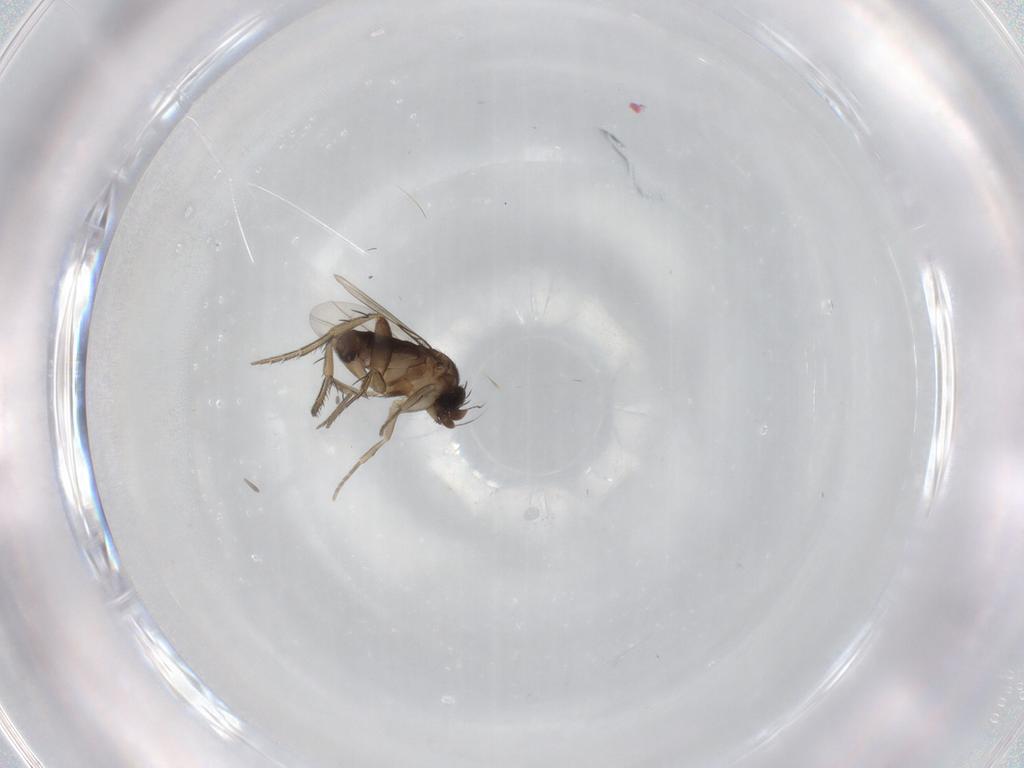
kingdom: Animalia
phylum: Arthropoda
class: Insecta
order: Diptera
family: Phoridae
